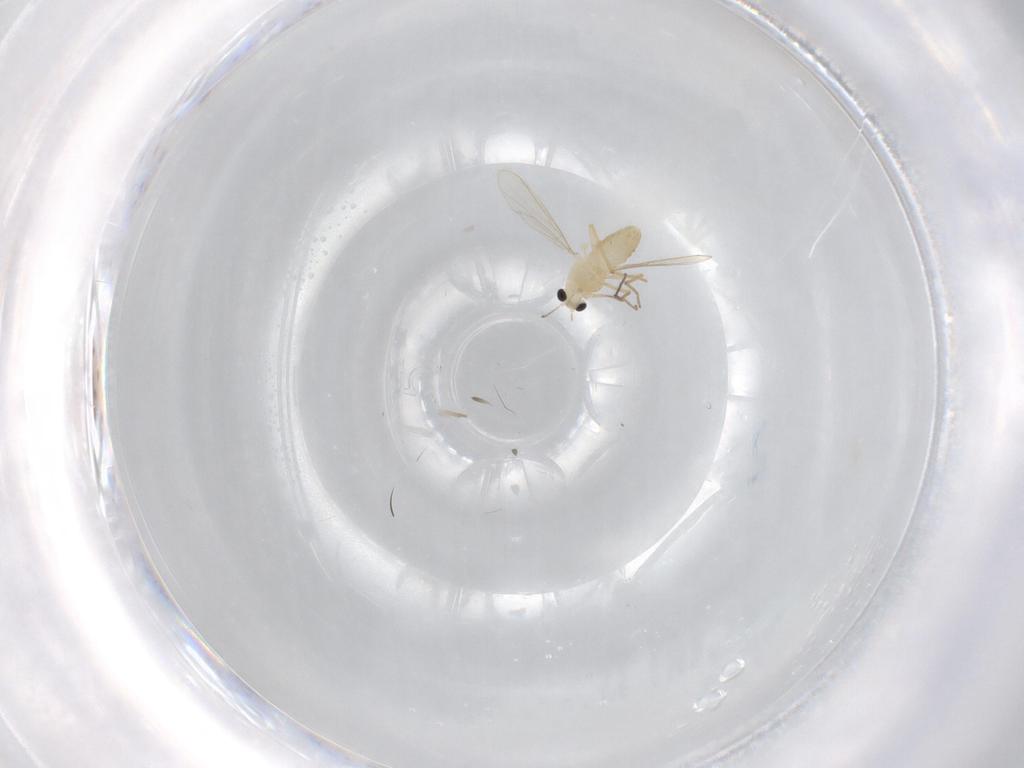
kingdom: Animalia
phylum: Arthropoda
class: Insecta
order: Diptera
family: Chironomidae
